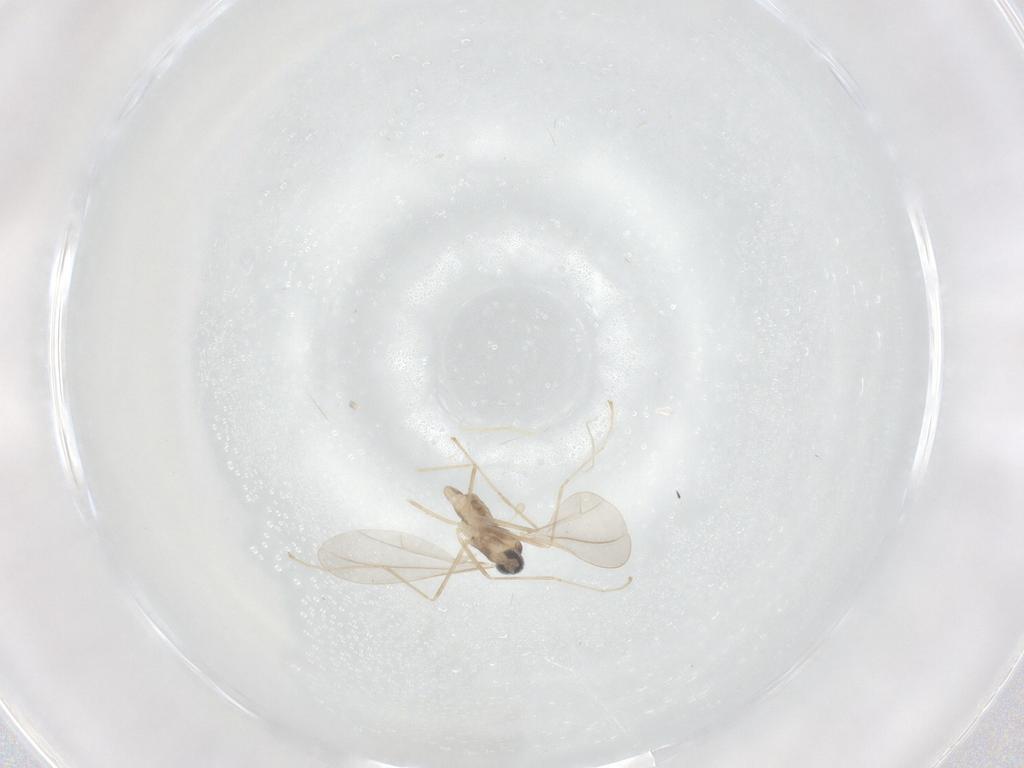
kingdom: Animalia
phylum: Arthropoda
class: Insecta
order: Diptera
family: Cecidomyiidae
